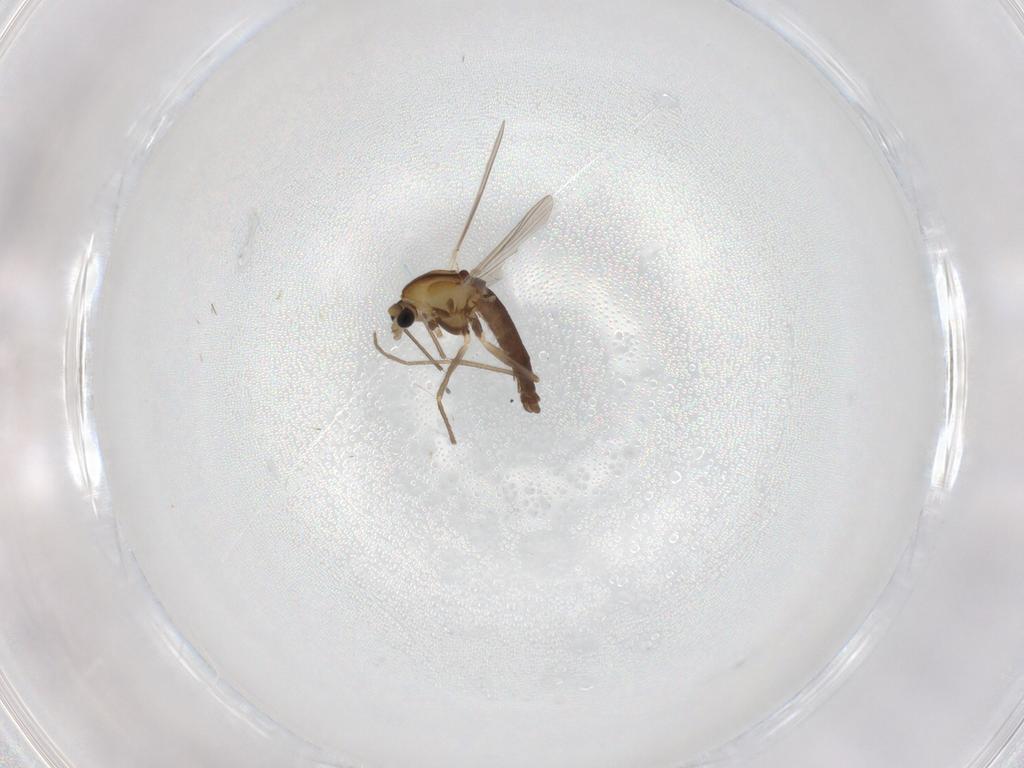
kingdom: Animalia
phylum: Arthropoda
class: Insecta
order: Diptera
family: Chironomidae
